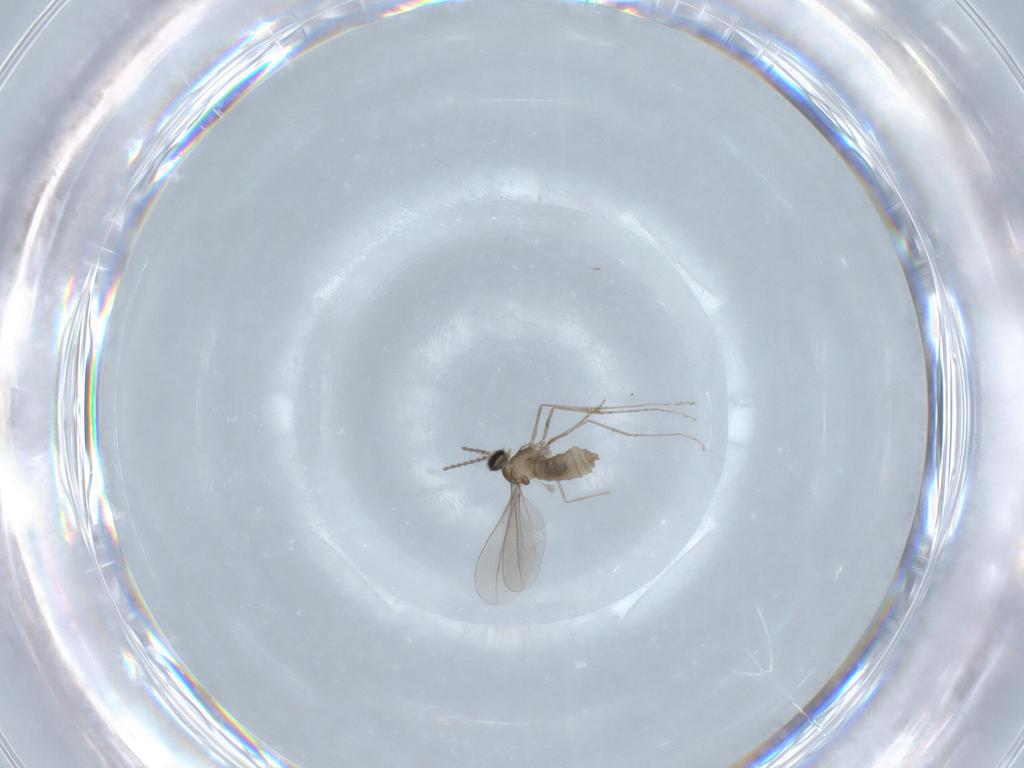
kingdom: Animalia
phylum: Arthropoda
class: Insecta
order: Diptera
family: Cecidomyiidae
